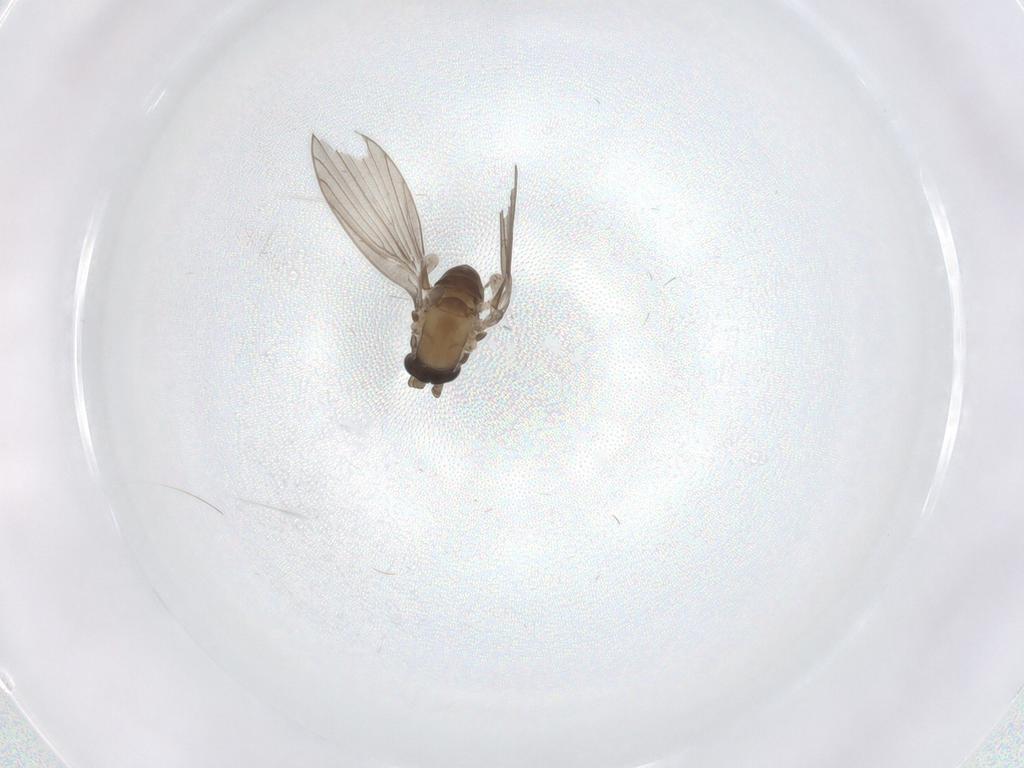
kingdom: Animalia
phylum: Arthropoda
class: Insecta
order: Diptera
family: Psychodidae
